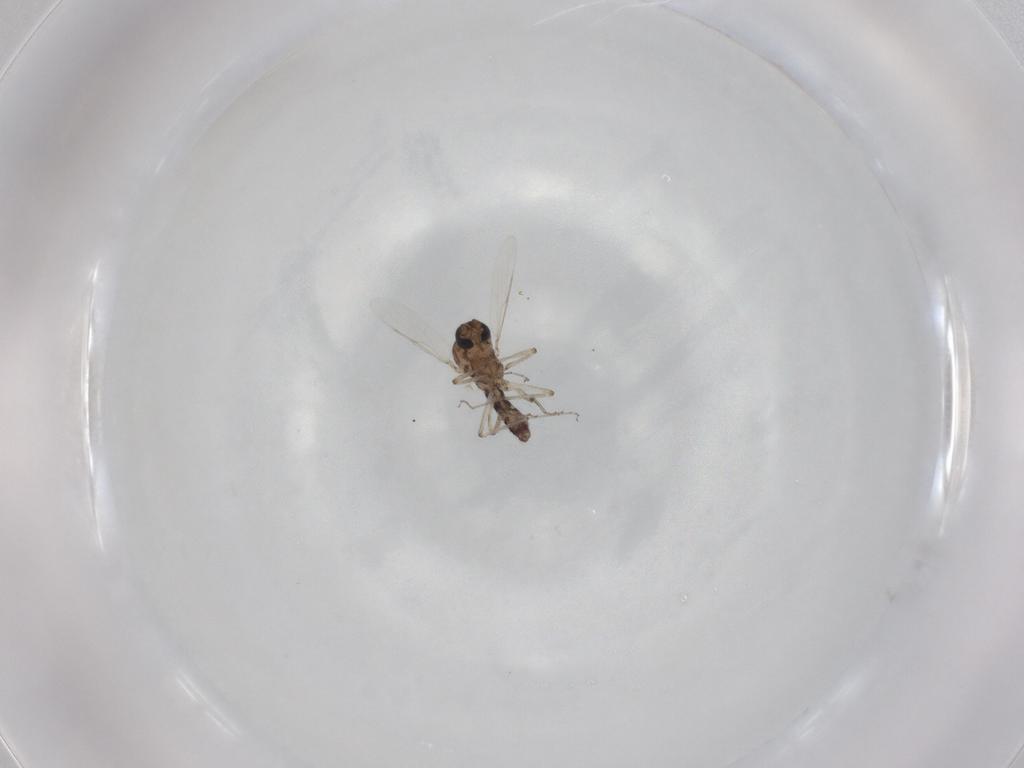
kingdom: Animalia
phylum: Arthropoda
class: Insecta
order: Diptera
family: Ceratopogonidae
